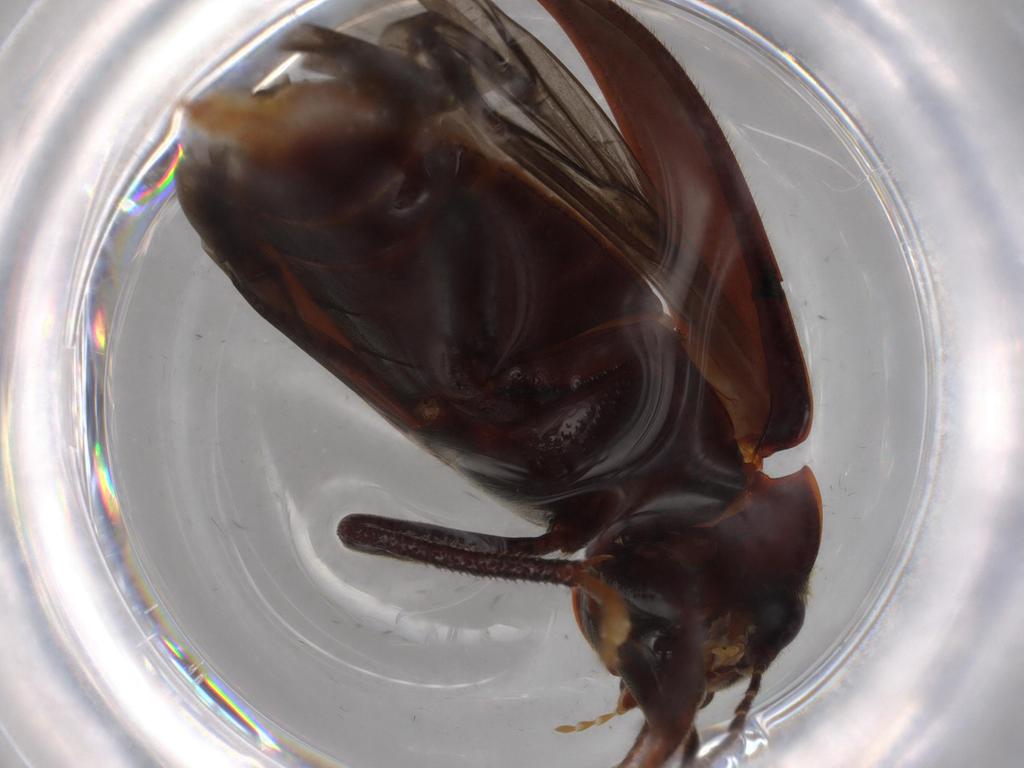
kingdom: Animalia
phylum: Arthropoda
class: Insecta
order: Coleoptera
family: Ptilodactylidae
